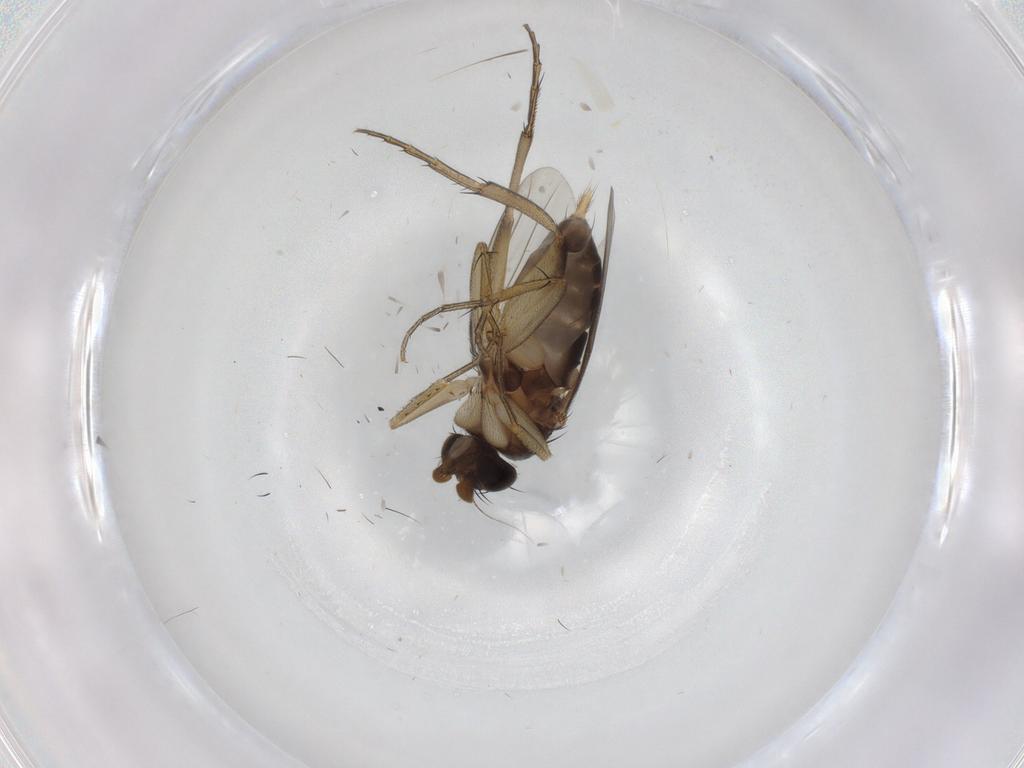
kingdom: Animalia
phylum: Arthropoda
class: Insecta
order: Diptera
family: Phoridae
